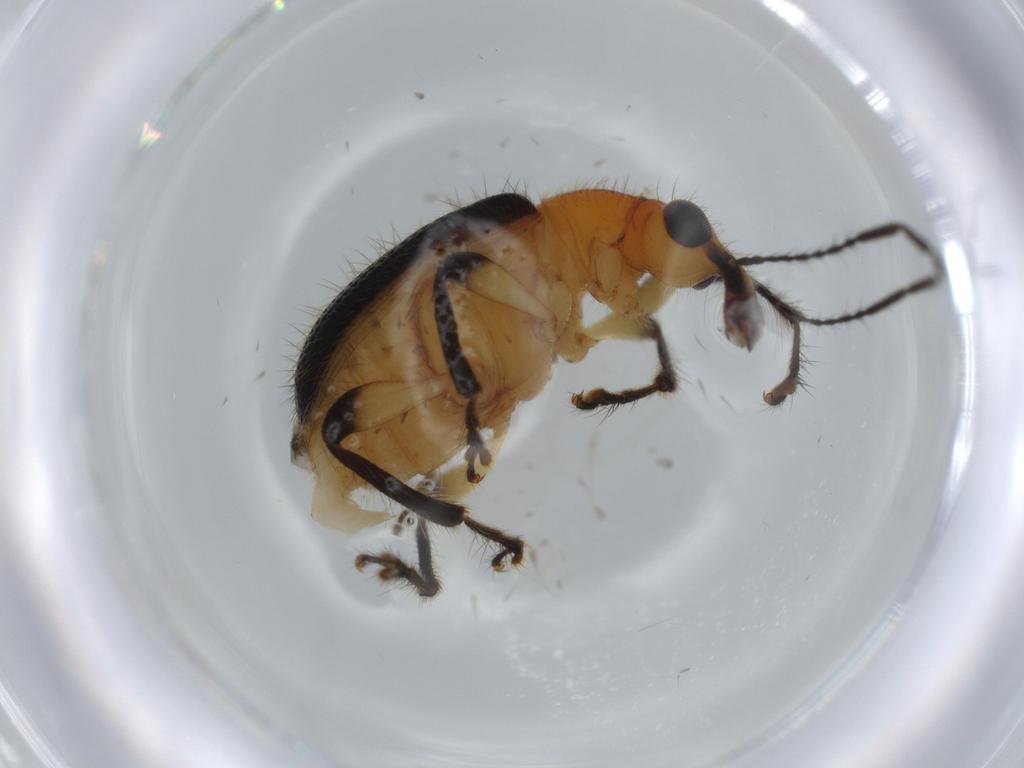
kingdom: Animalia
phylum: Arthropoda
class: Insecta
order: Coleoptera
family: Attelabidae
